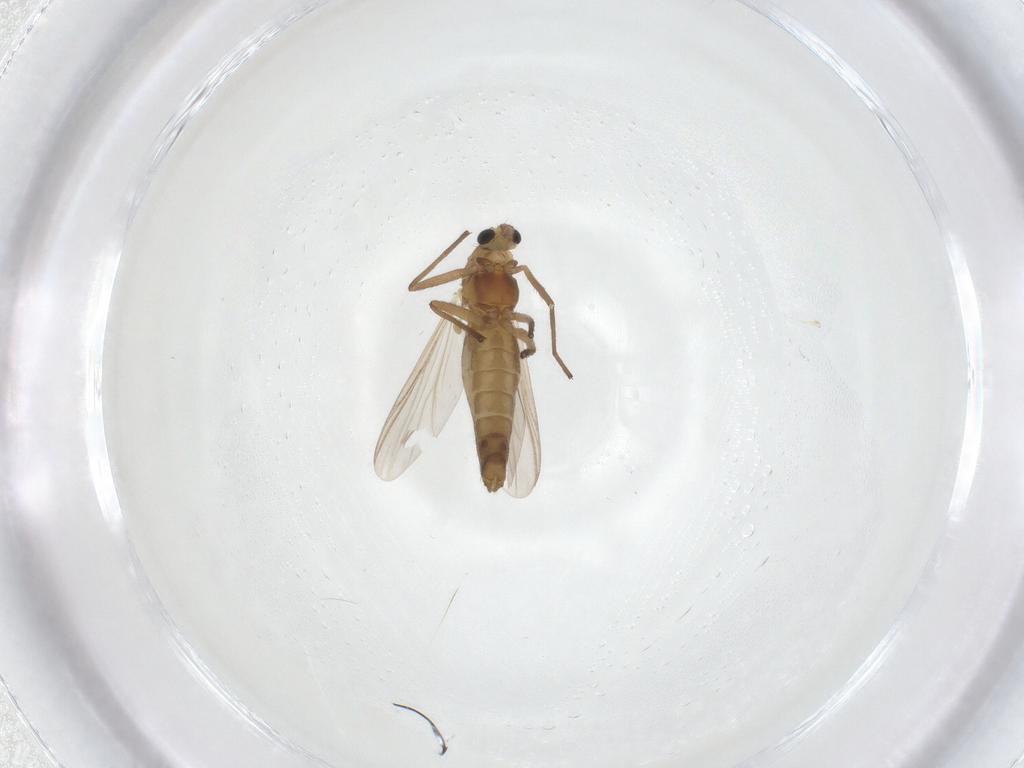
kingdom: Animalia
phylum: Arthropoda
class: Insecta
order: Diptera
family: Chironomidae
